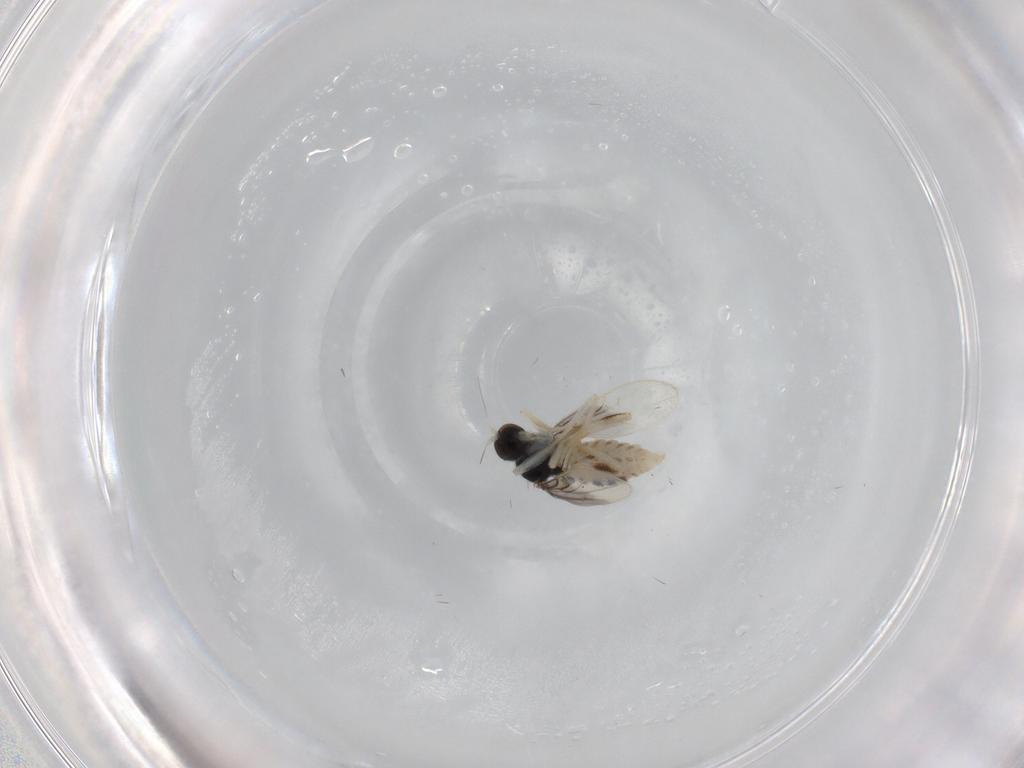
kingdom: Animalia
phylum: Arthropoda
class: Insecta
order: Diptera
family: Hybotidae
